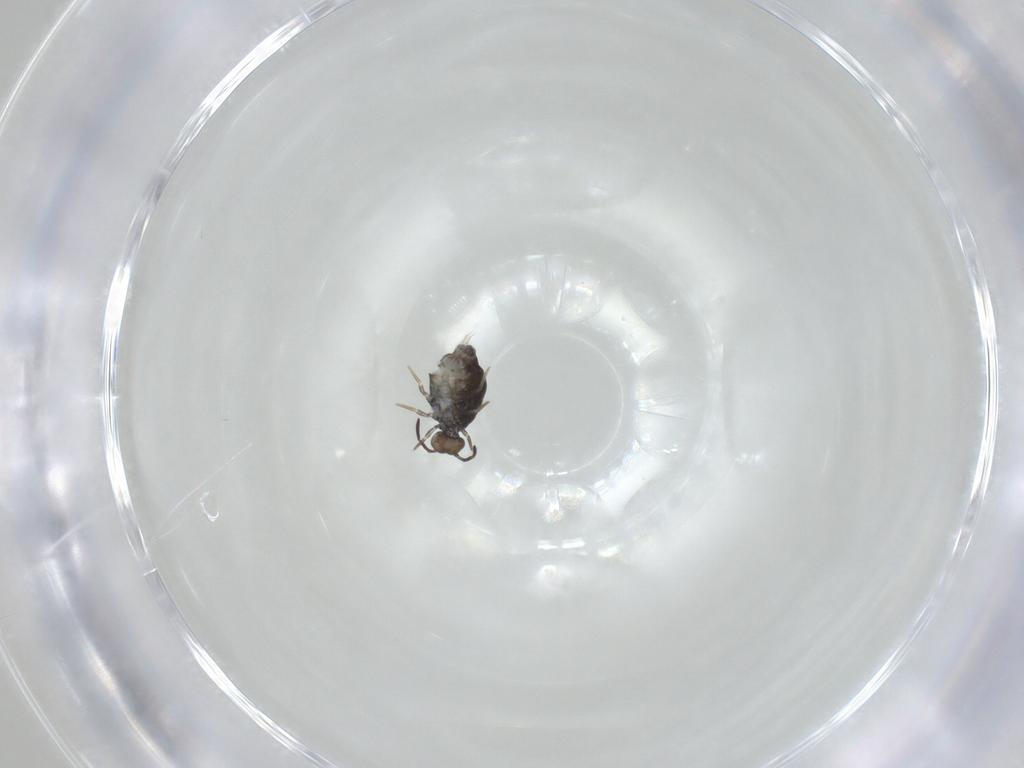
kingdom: Animalia
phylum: Arthropoda
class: Collembola
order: Symphypleona
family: Katiannidae
